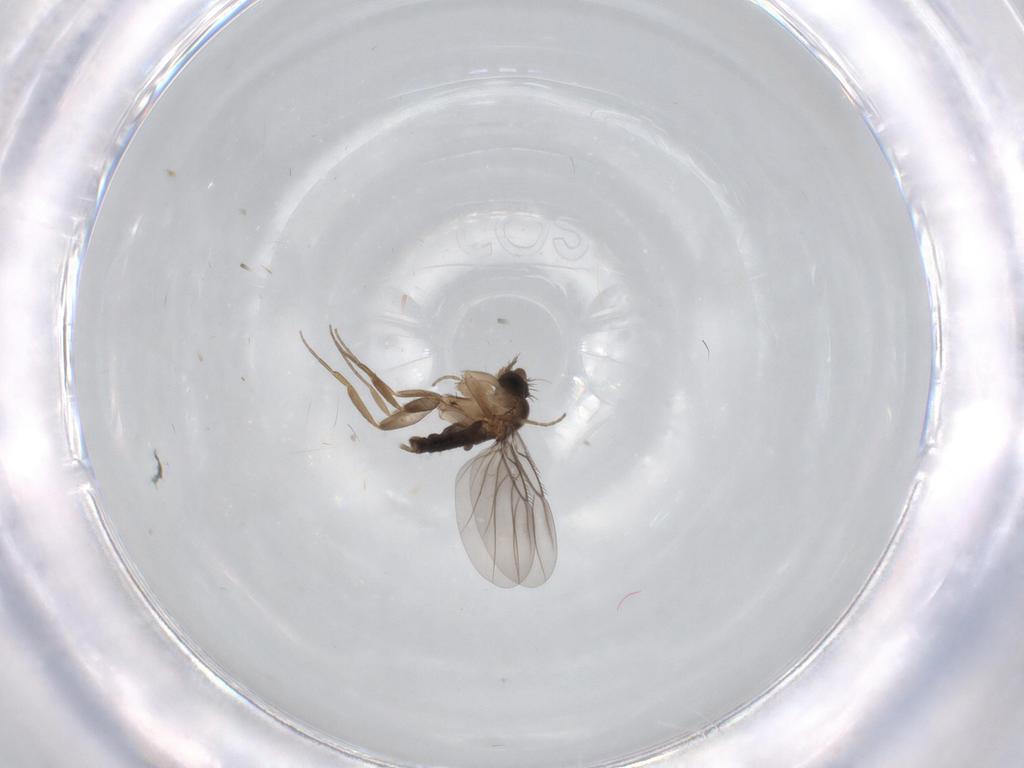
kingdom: Animalia
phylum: Arthropoda
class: Insecta
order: Diptera
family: Phoridae
